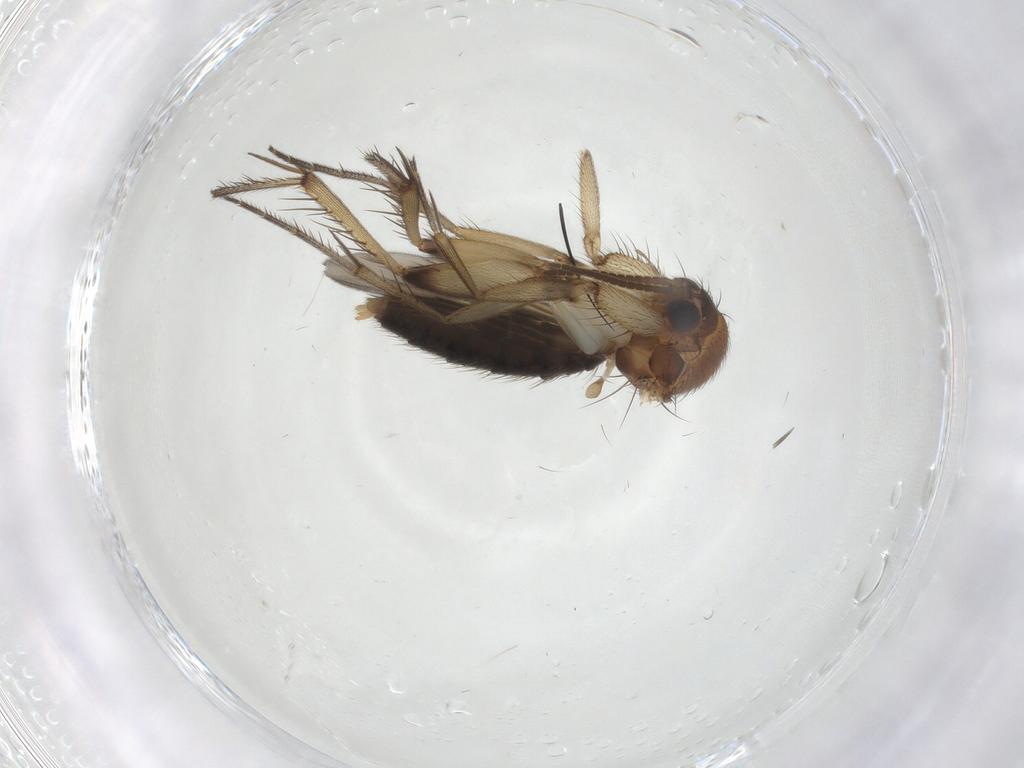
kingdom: Animalia
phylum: Arthropoda
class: Insecta
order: Diptera
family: Mycetophilidae
